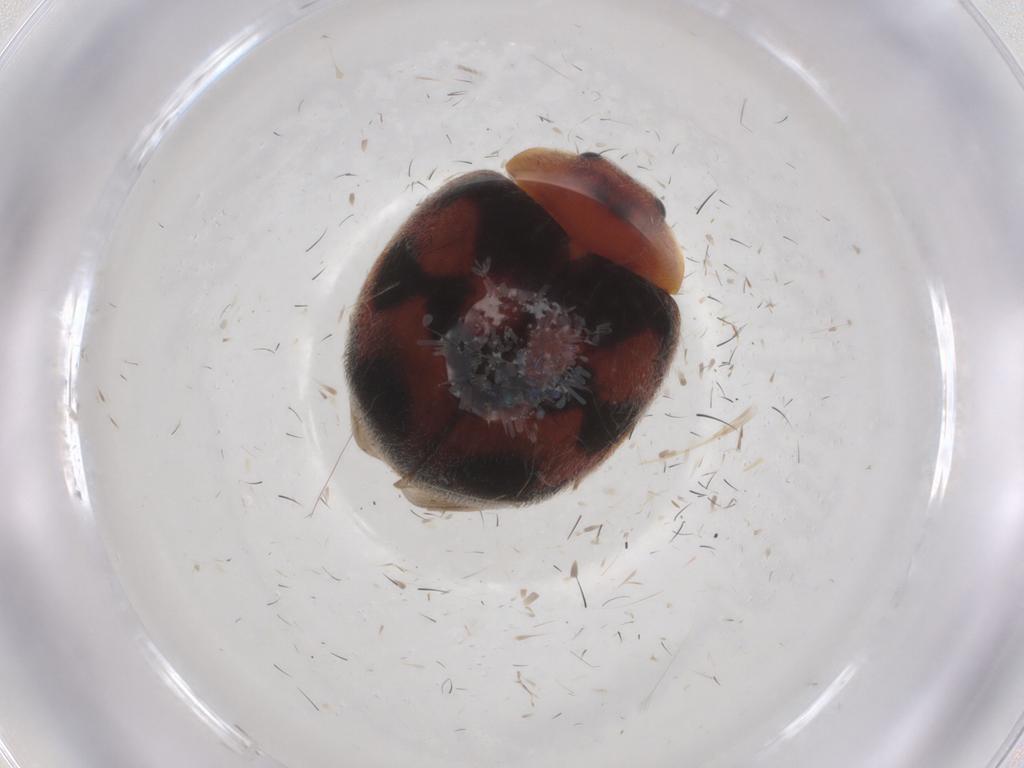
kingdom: Animalia
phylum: Arthropoda
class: Insecta
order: Coleoptera
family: Coccinellidae
